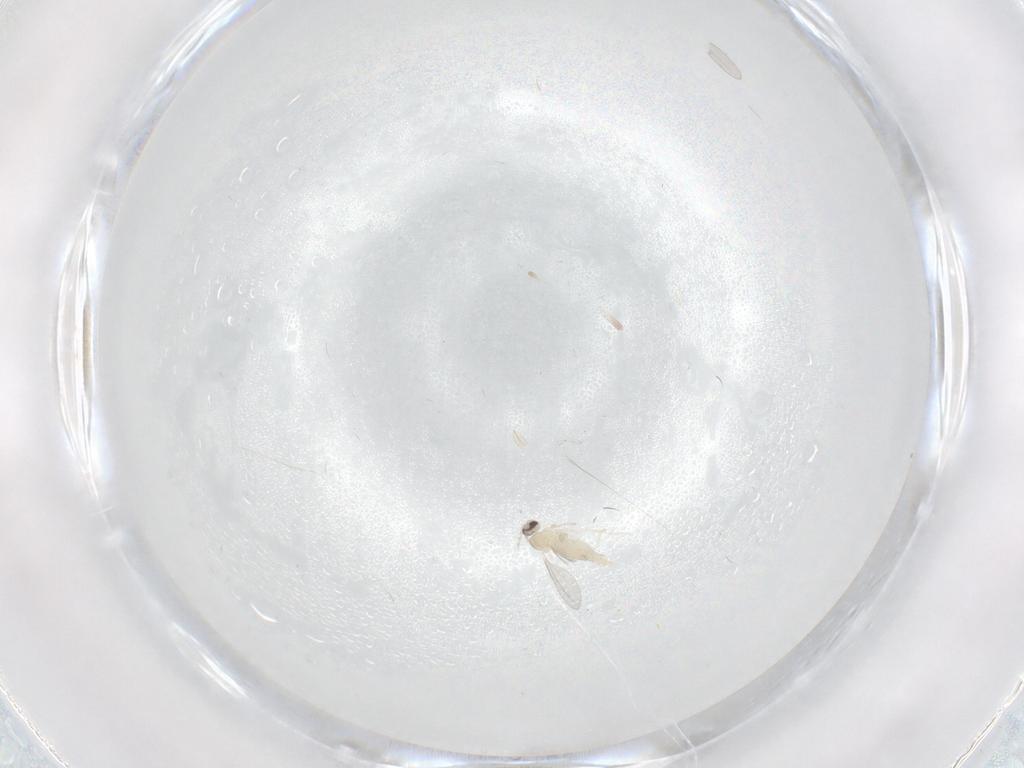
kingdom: Animalia
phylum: Arthropoda
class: Insecta
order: Diptera
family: Cecidomyiidae
